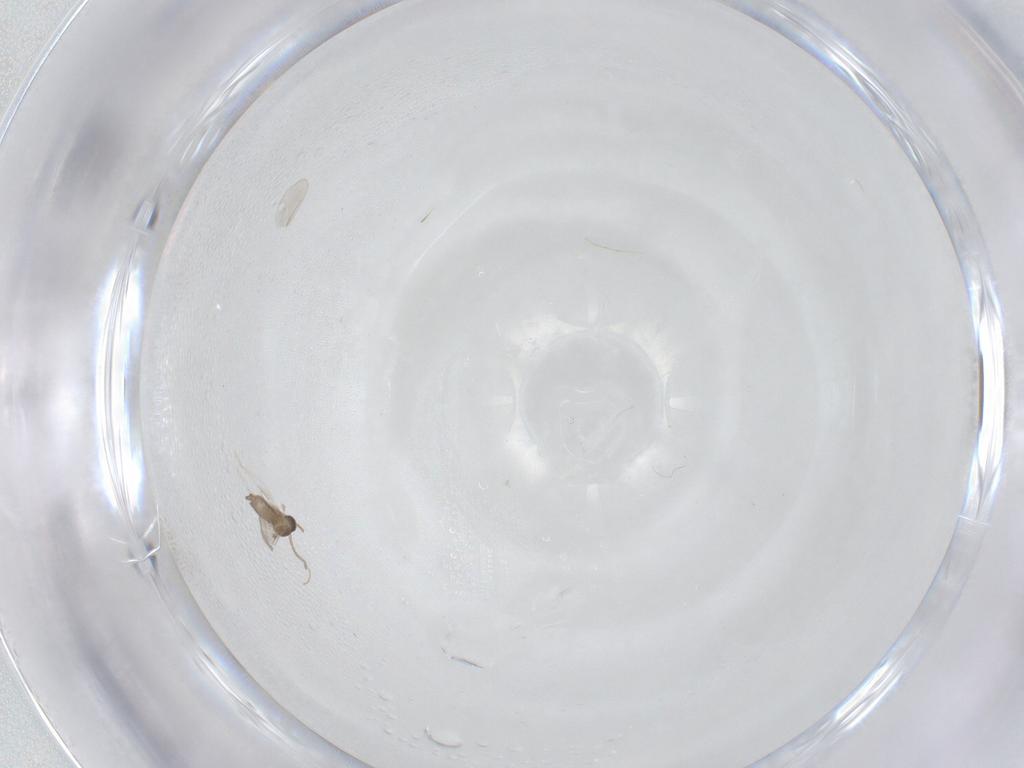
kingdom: Animalia
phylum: Arthropoda
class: Insecta
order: Diptera
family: Cecidomyiidae
